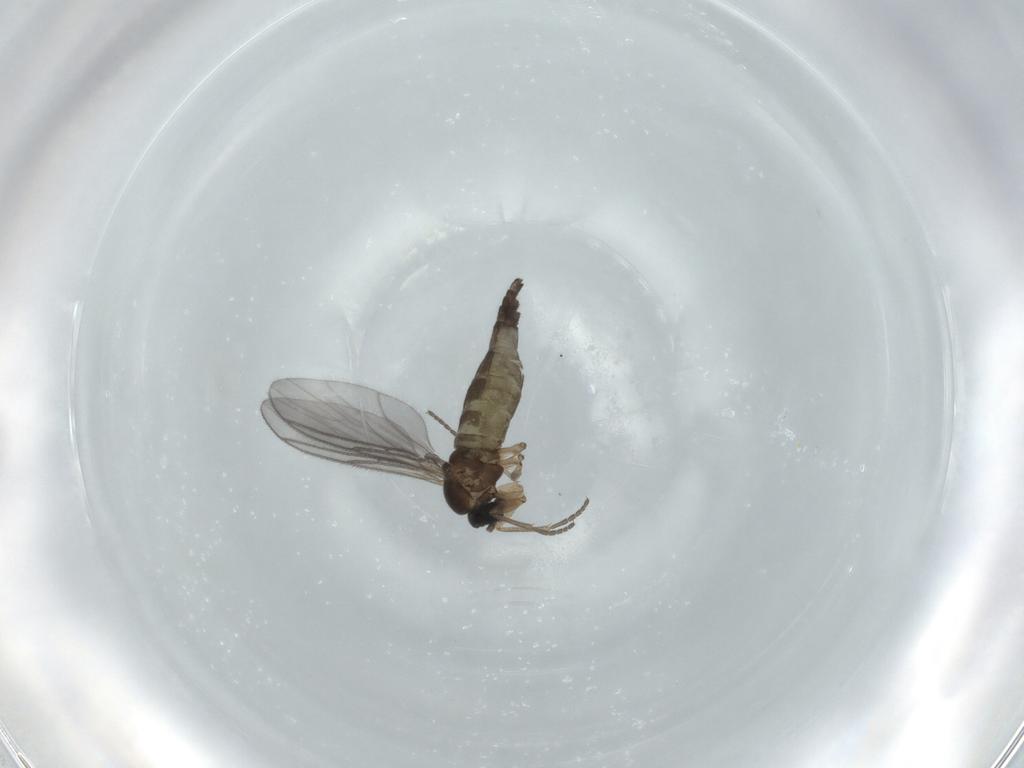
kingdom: Animalia
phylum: Arthropoda
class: Insecta
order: Diptera
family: Sciaridae
